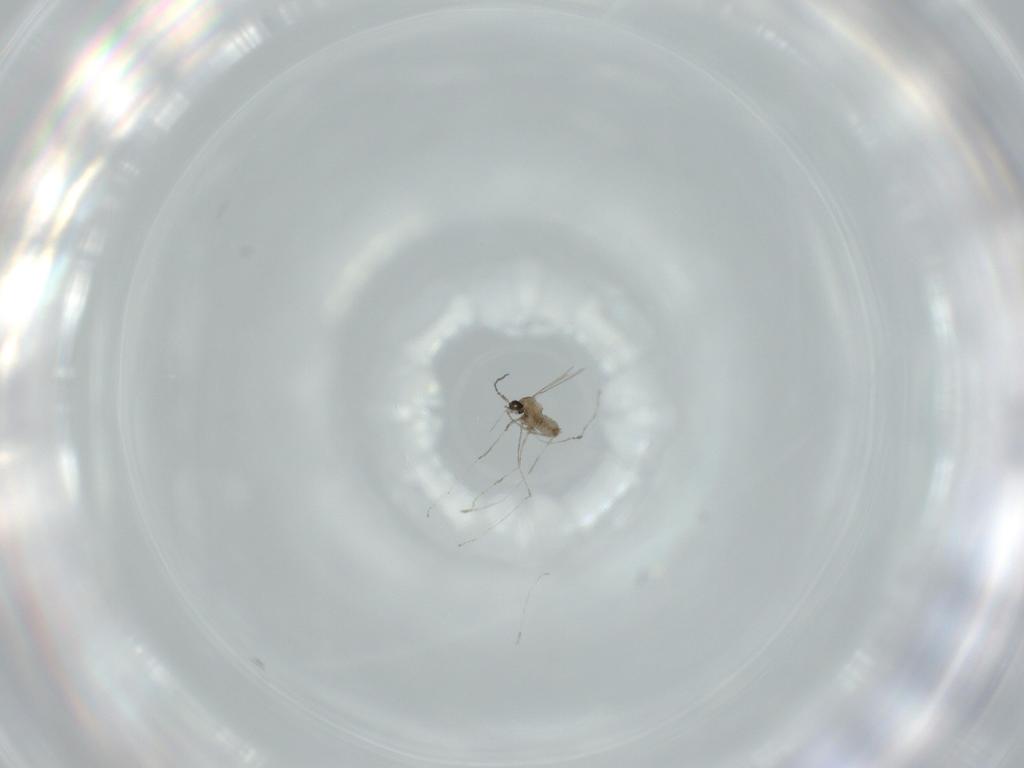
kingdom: Animalia
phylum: Arthropoda
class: Insecta
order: Diptera
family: Cecidomyiidae
